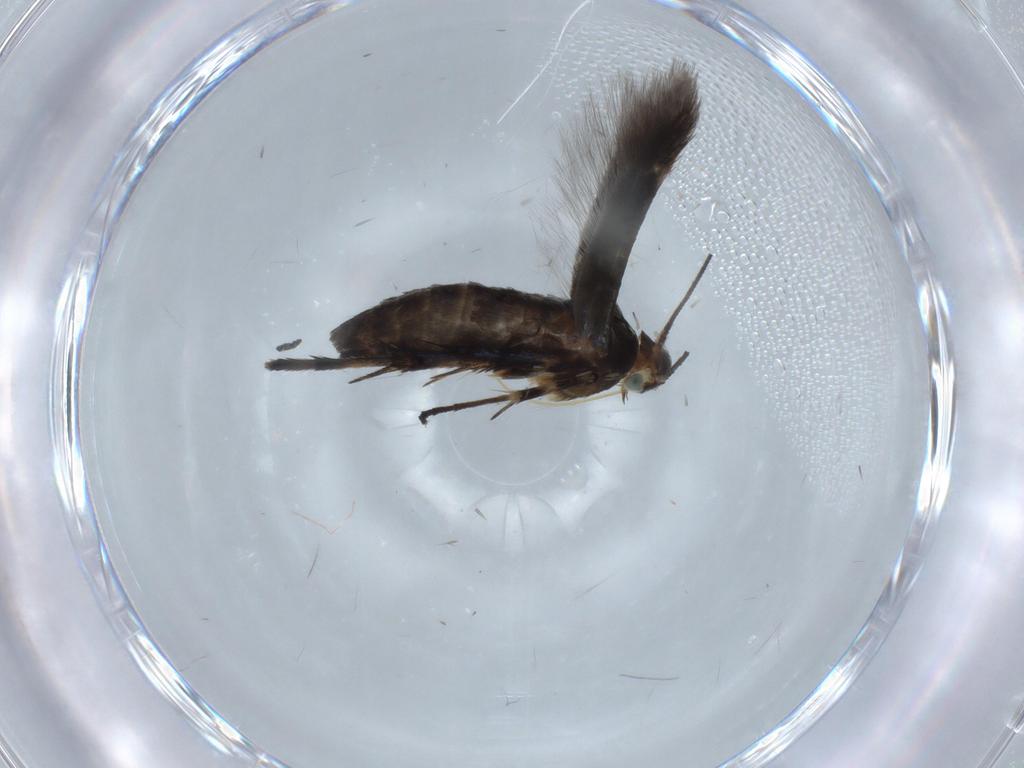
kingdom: Animalia
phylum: Arthropoda
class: Insecta
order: Lepidoptera
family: Heliodinidae
